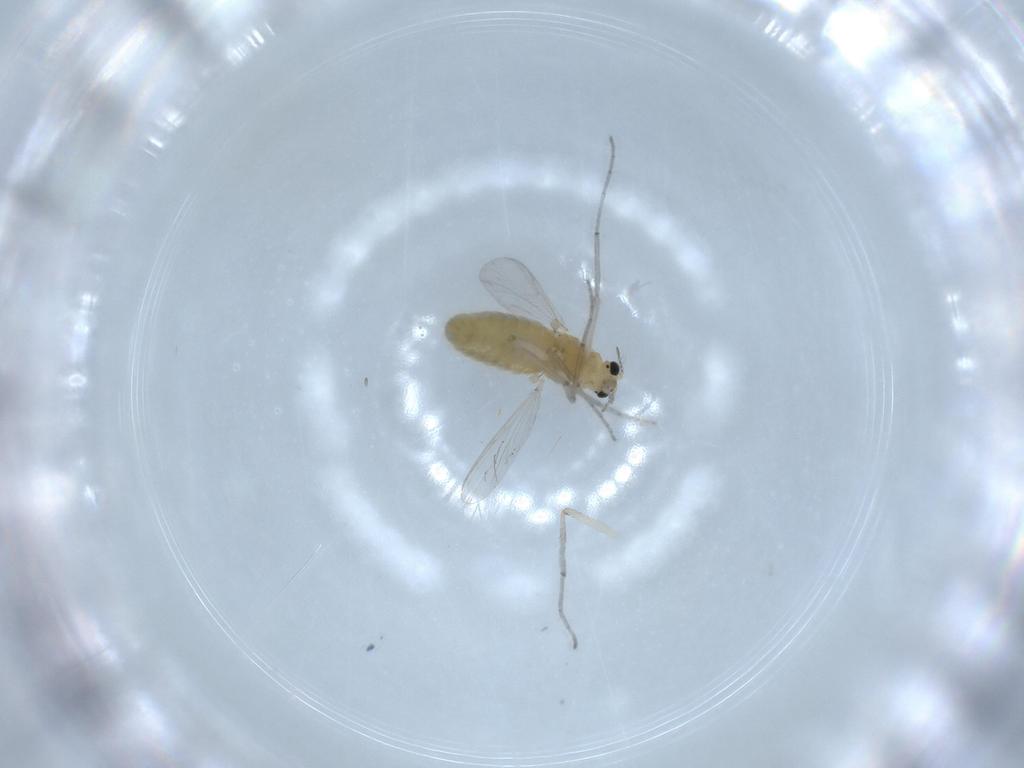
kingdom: Animalia
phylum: Arthropoda
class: Insecta
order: Diptera
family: Chironomidae
